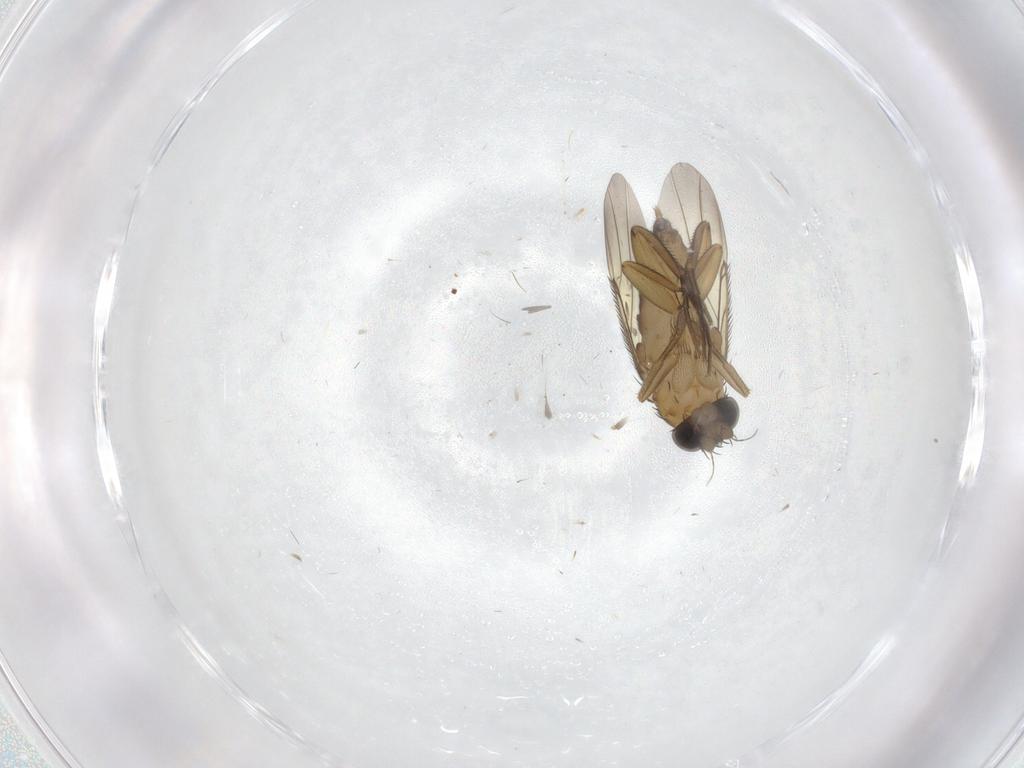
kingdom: Animalia
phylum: Arthropoda
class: Insecta
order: Diptera
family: Phoridae
